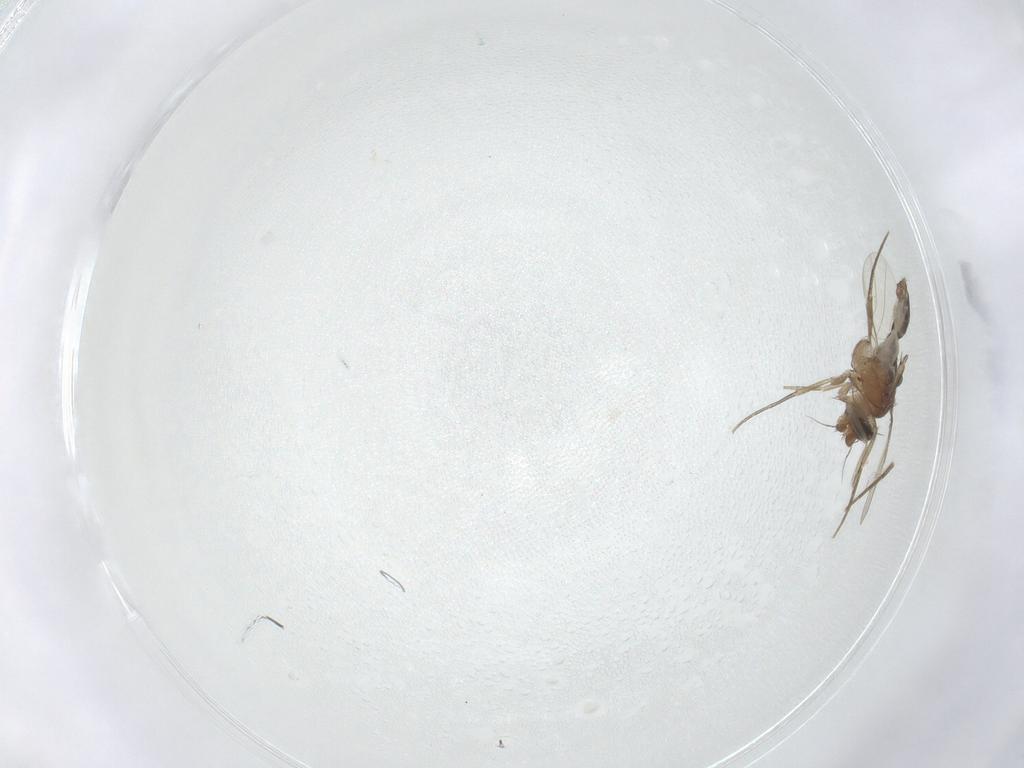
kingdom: Animalia
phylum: Arthropoda
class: Insecta
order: Diptera
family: Phoridae
